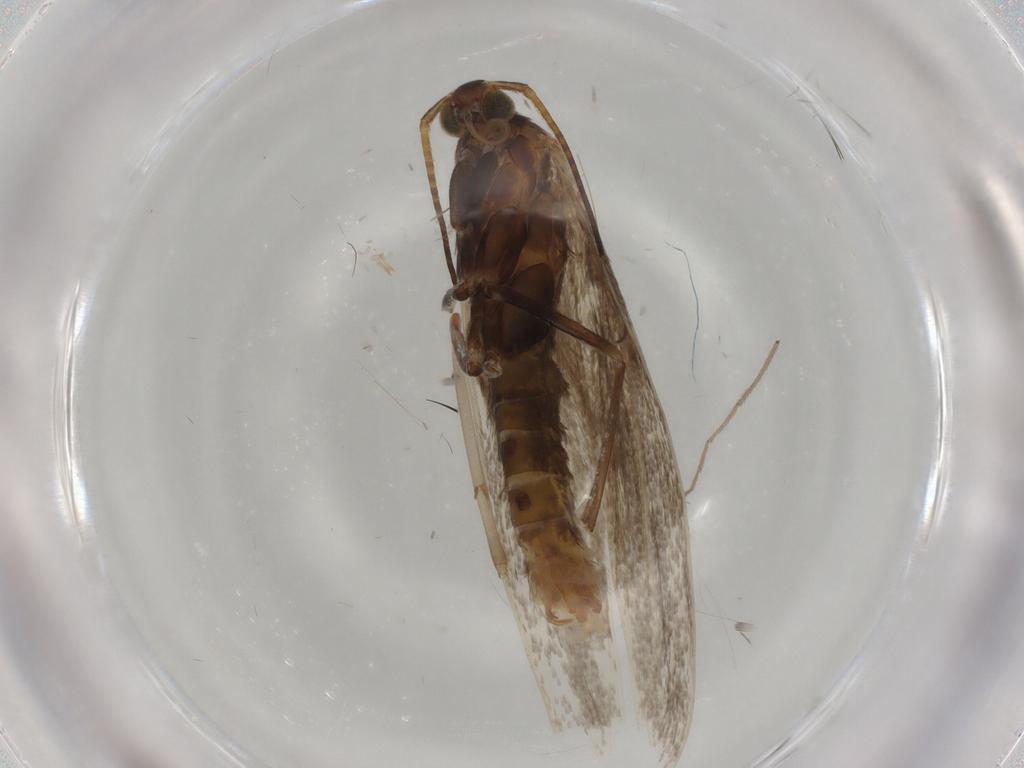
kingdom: Animalia
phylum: Arthropoda
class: Insecta
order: Lepidoptera
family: Coleophoridae
